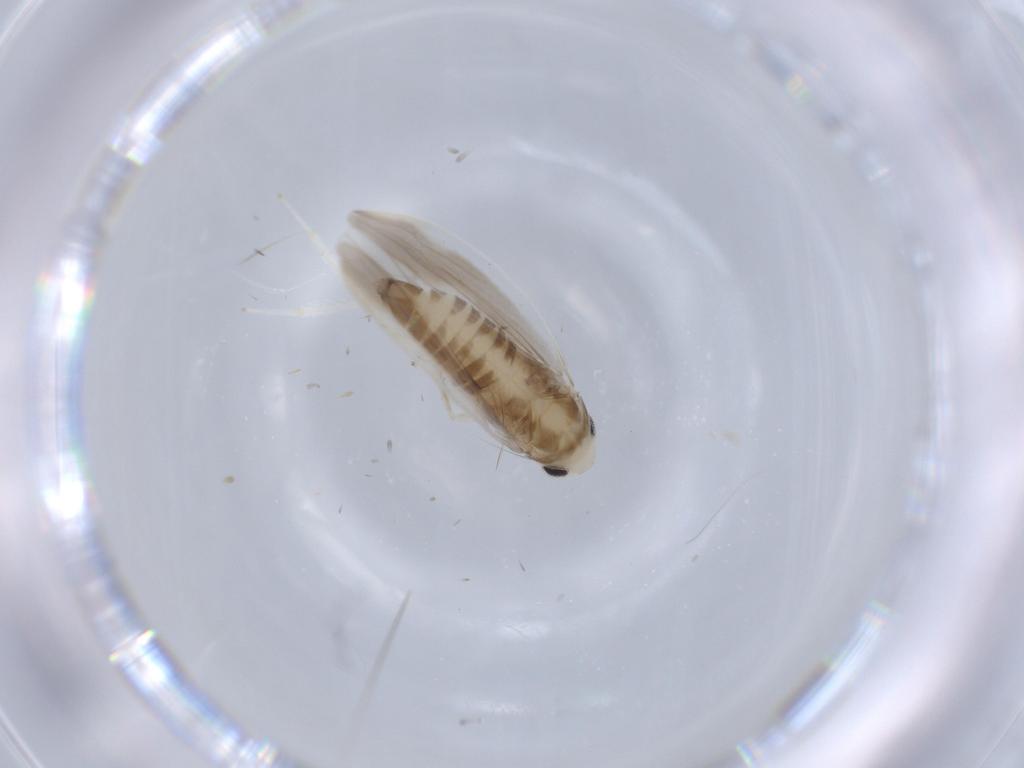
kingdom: Animalia
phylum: Arthropoda
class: Insecta
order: Hemiptera
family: Cicadellidae
